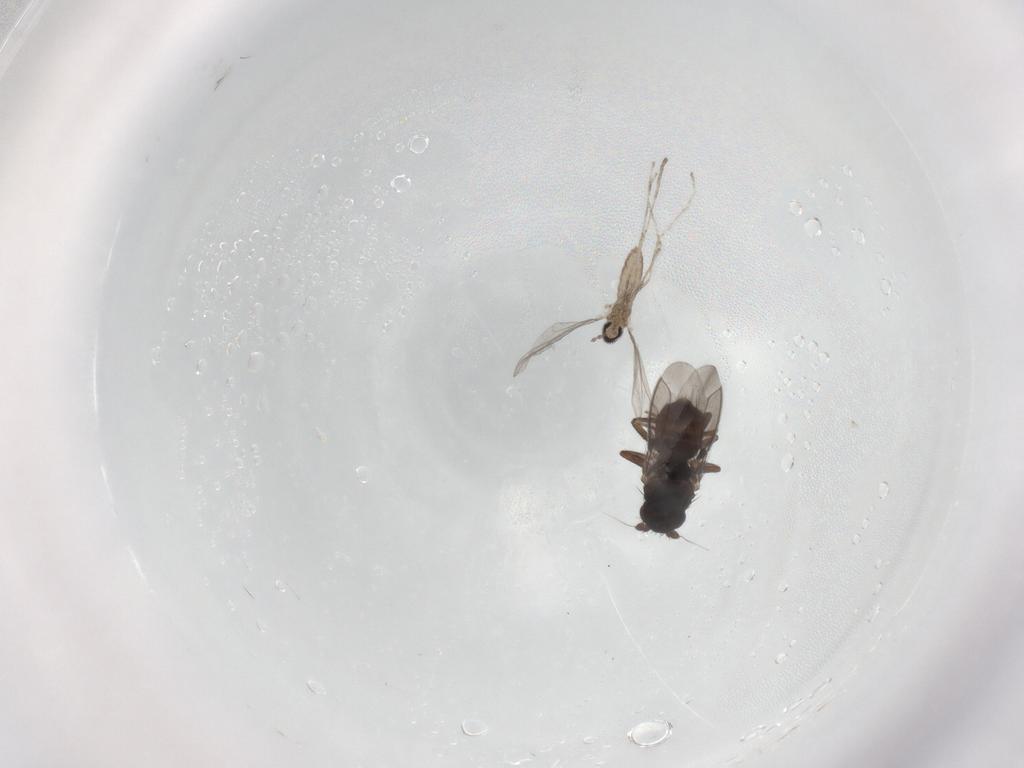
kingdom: Animalia
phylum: Arthropoda
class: Insecta
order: Diptera
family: Sphaeroceridae
